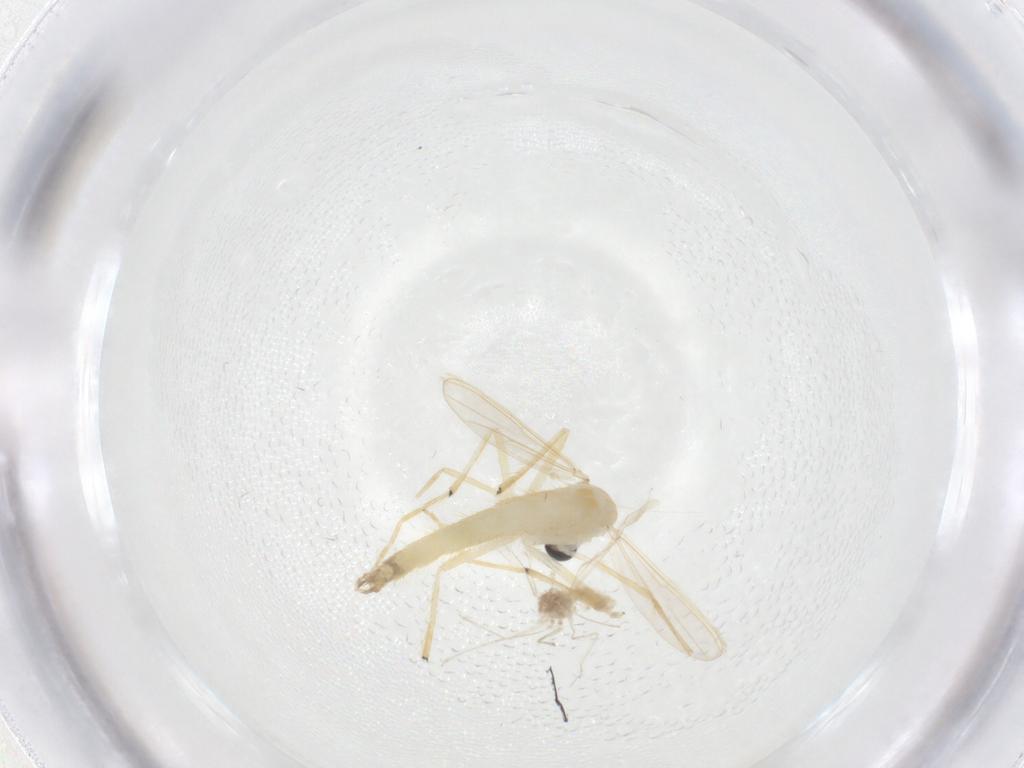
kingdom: Animalia
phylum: Arthropoda
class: Insecta
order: Diptera
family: Chironomidae
